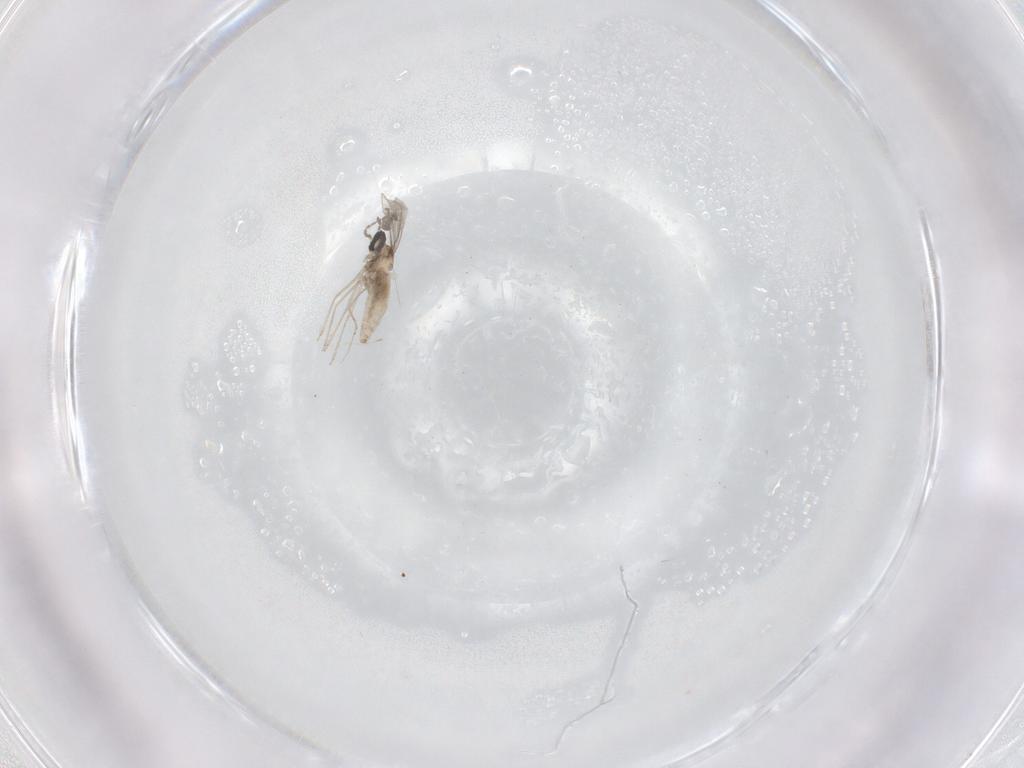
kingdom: Animalia
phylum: Arthropoda
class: Insecta
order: Diptera
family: Cecidomyiidae
